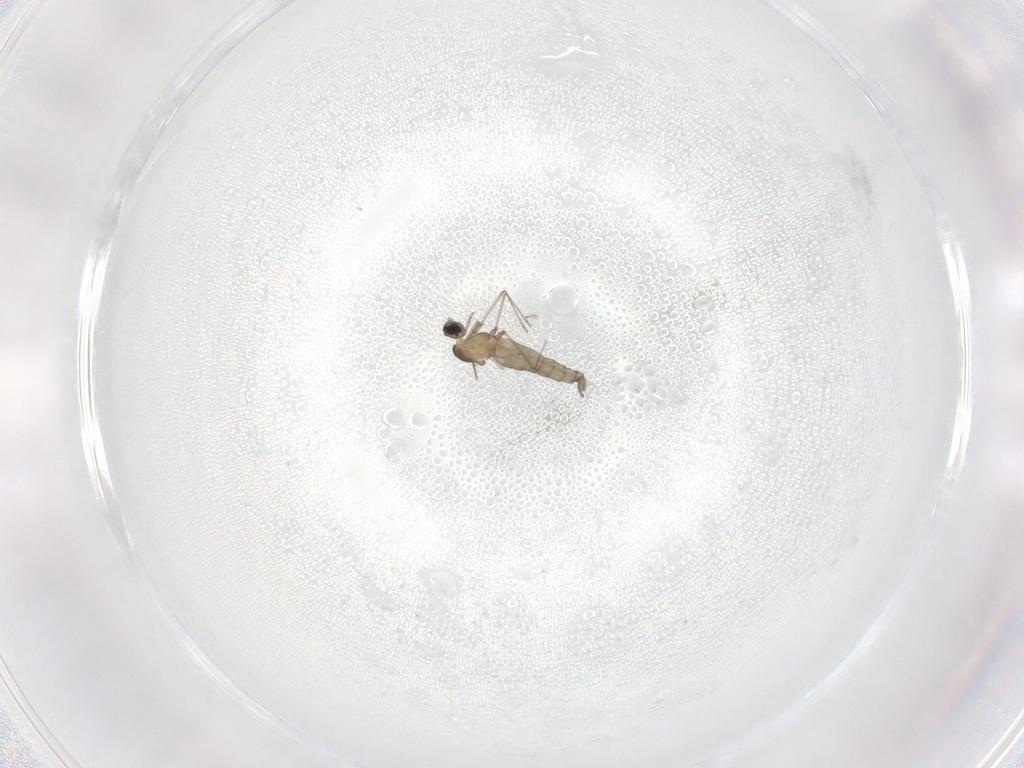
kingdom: Animalia
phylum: Arthropoda
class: Insecta
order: Diptera
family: Cecidomyiidae
